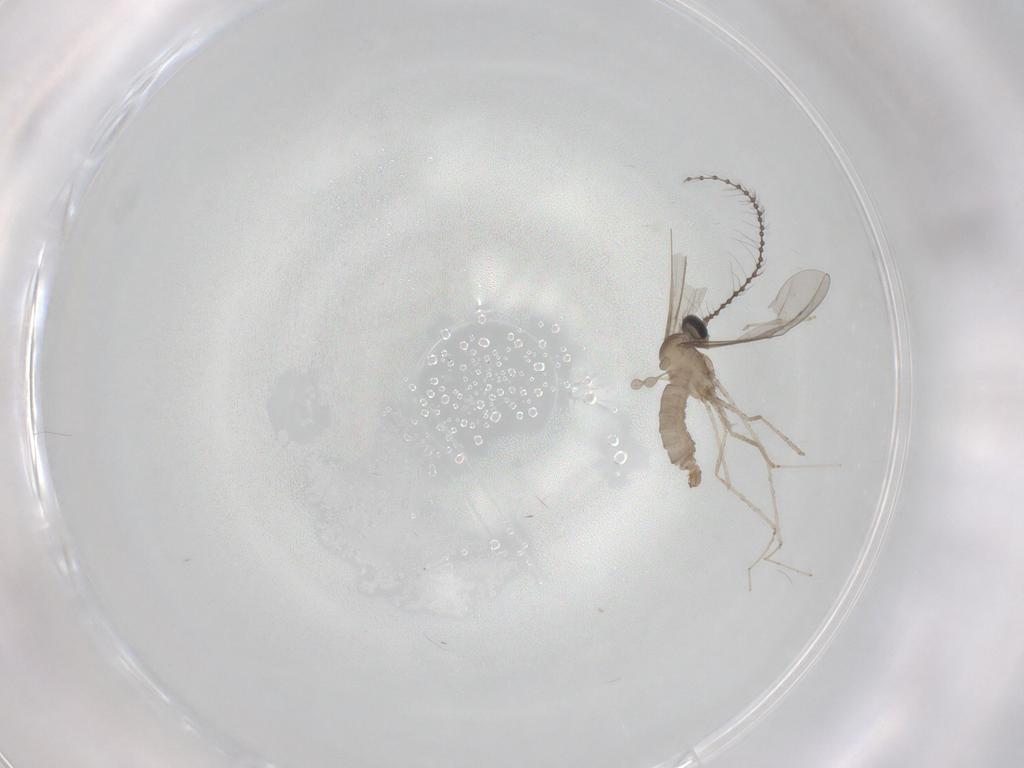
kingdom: Animalia
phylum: Arthropoda
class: Insecta
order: Diptera
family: Cecidomyiidae
